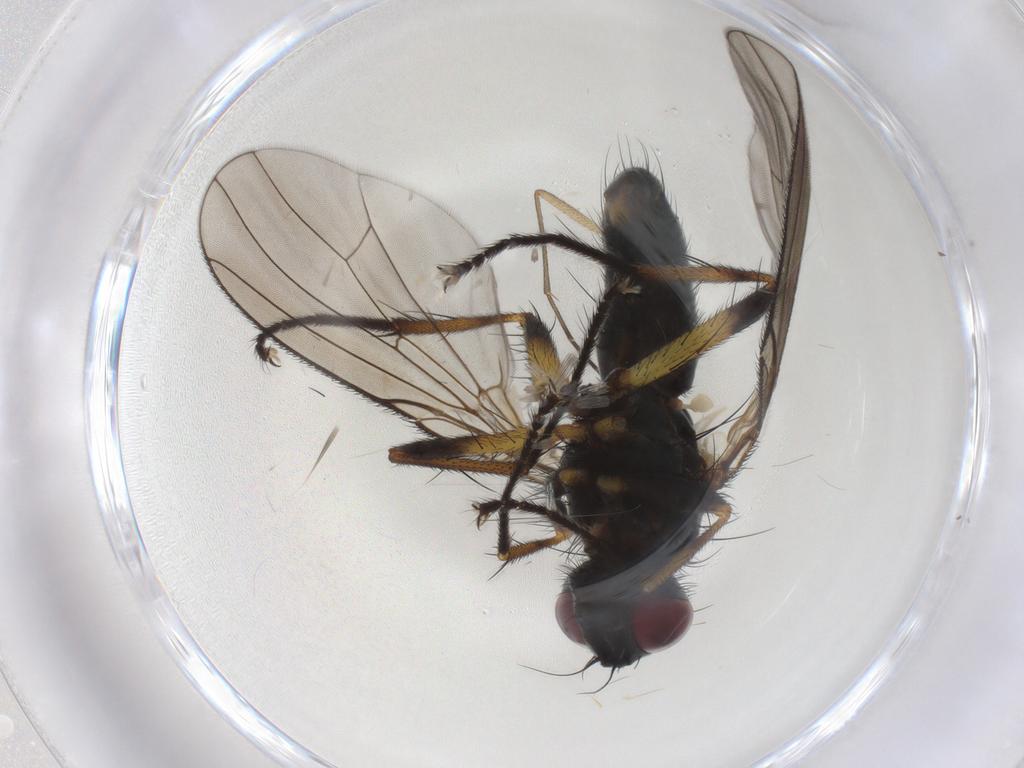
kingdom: Animalia
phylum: Arthropoda
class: Insecta
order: Diptera
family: Muscidae
